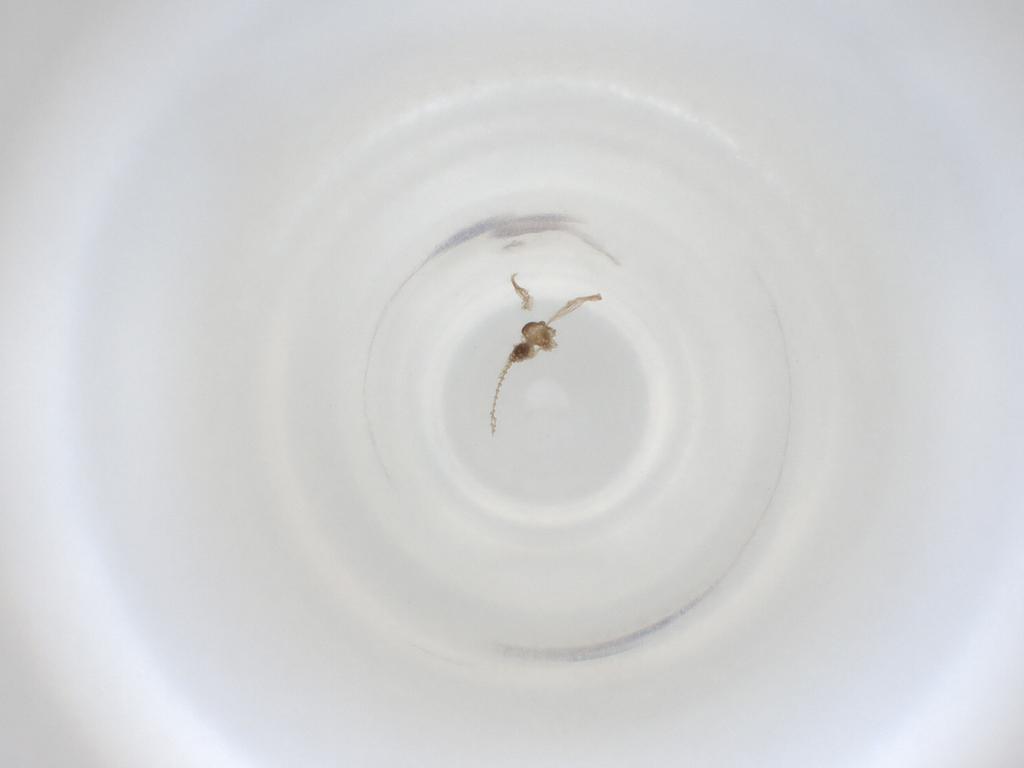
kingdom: Animalia
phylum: Arthropoda
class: Insecta
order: Diptera
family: Cecidomyiidae
